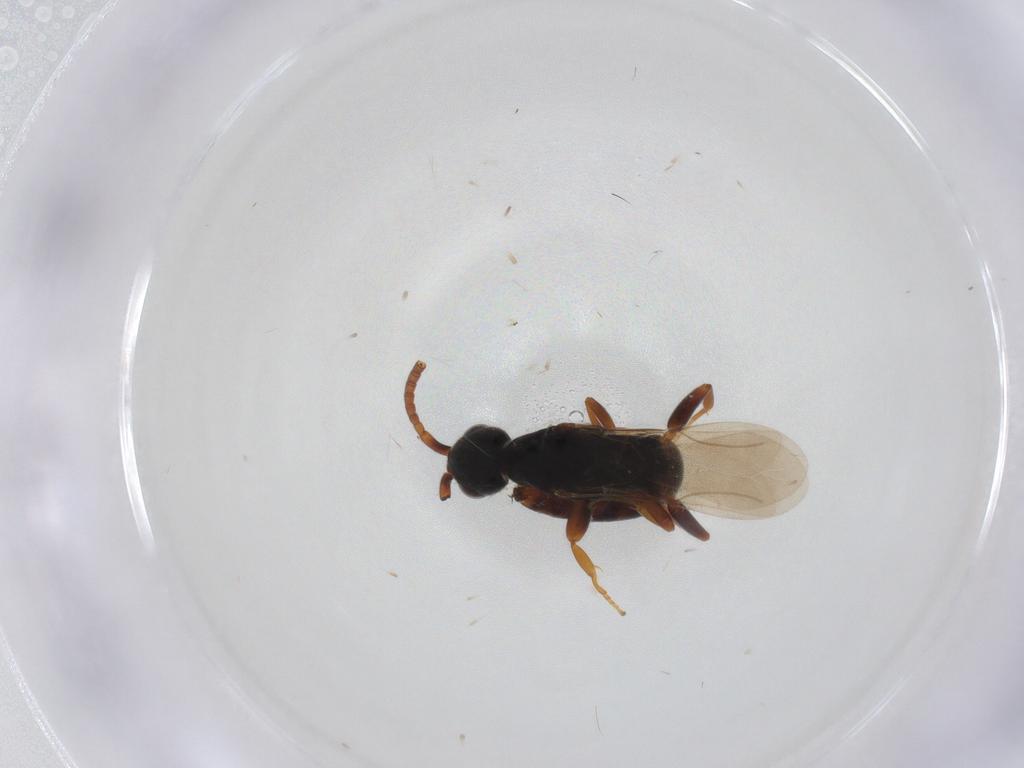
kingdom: Animalia
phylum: Arthropoda
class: Insecta
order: Hymenoptera
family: Bethylidae
